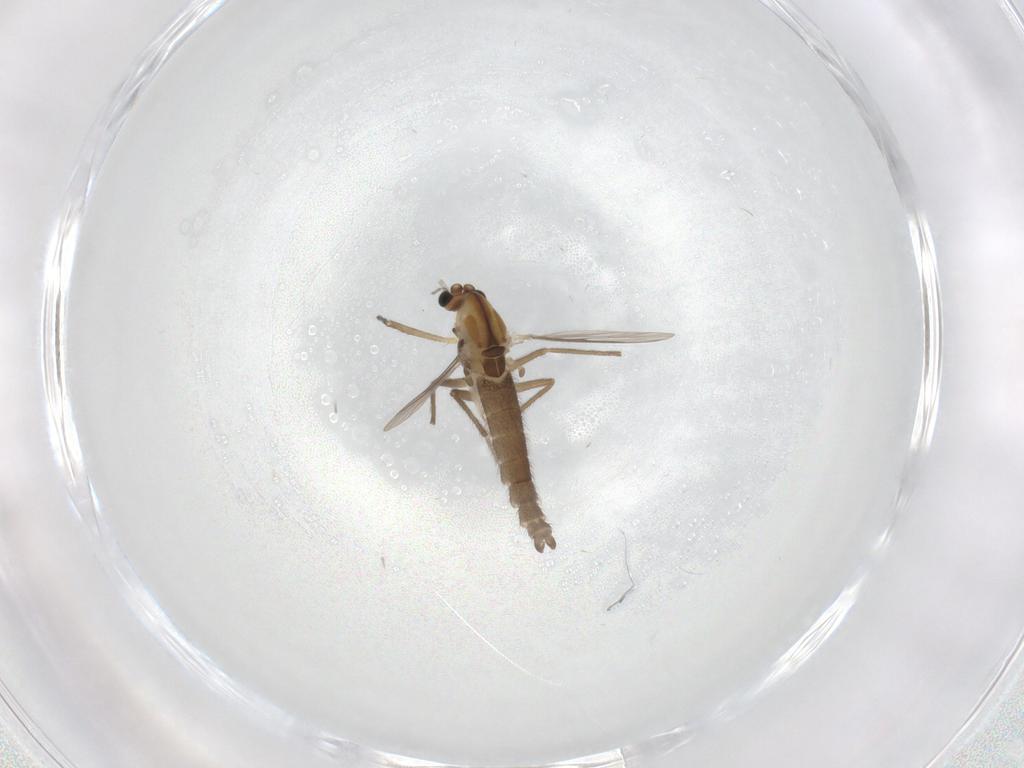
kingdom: Animalia
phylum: Arthropoda
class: Insecta
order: Diptera
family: Chironomidae
